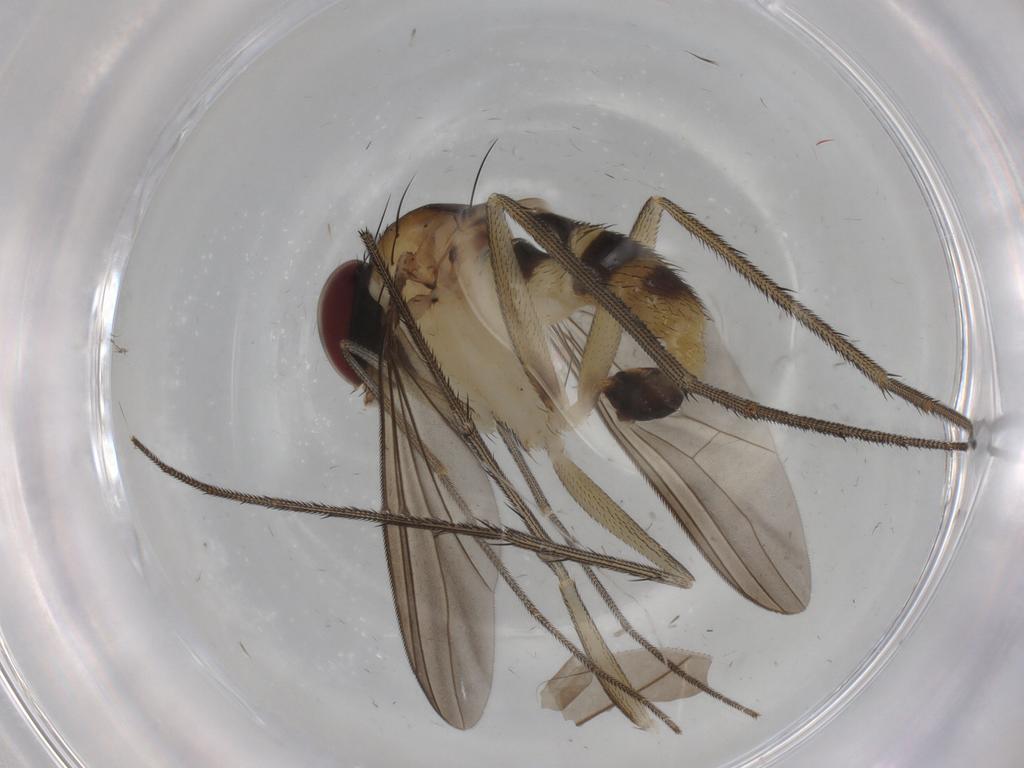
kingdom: Animalia
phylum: Arthropoda
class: Insecta
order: Diptera
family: Dolichopodidae
